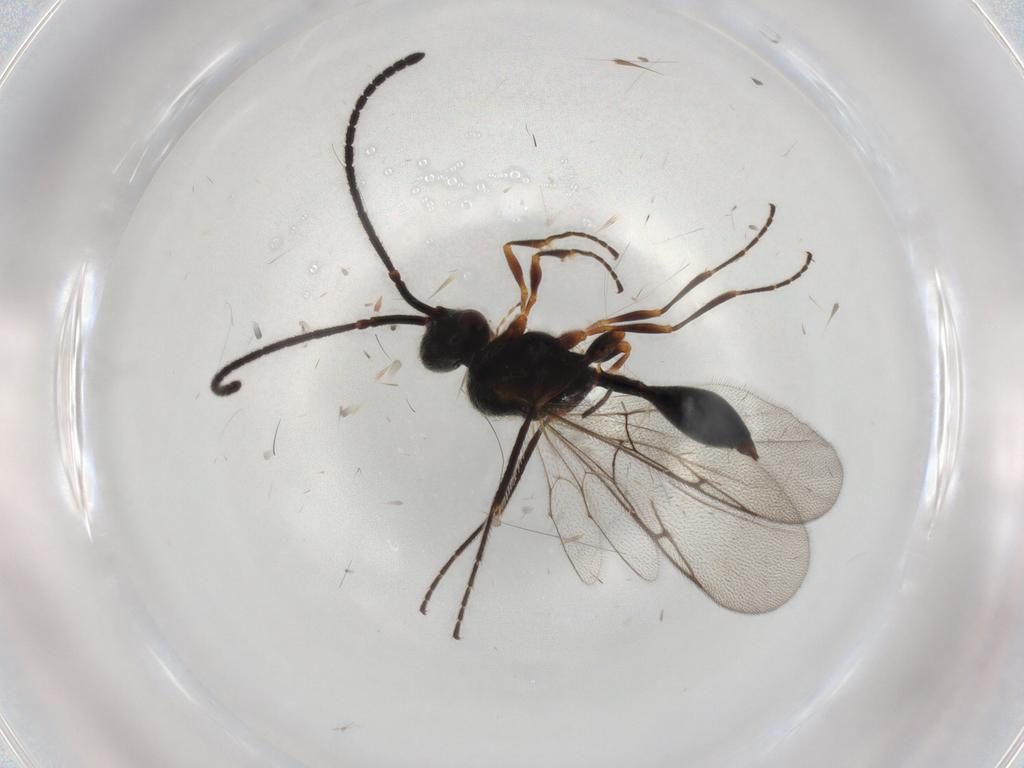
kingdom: Animalia
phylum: Arthropoda
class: Insecta
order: Hymenoptera
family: Diapriidae
